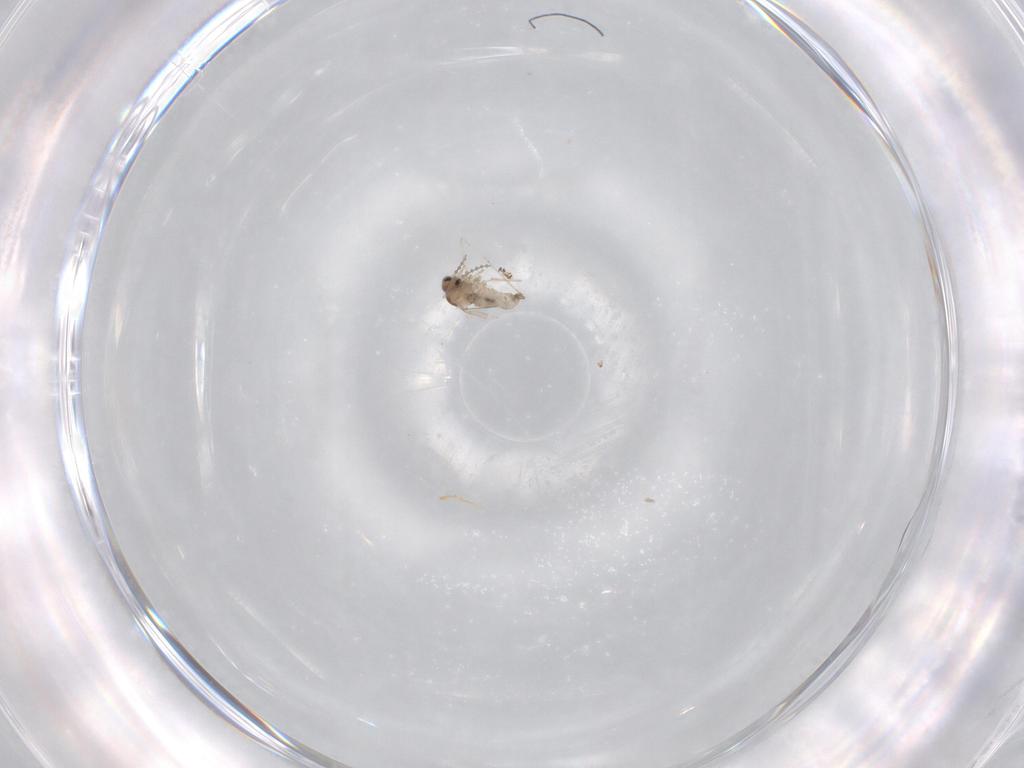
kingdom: Animalia
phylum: Arthropoda
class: Insecta
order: Diptera
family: Cecidomyiidae
